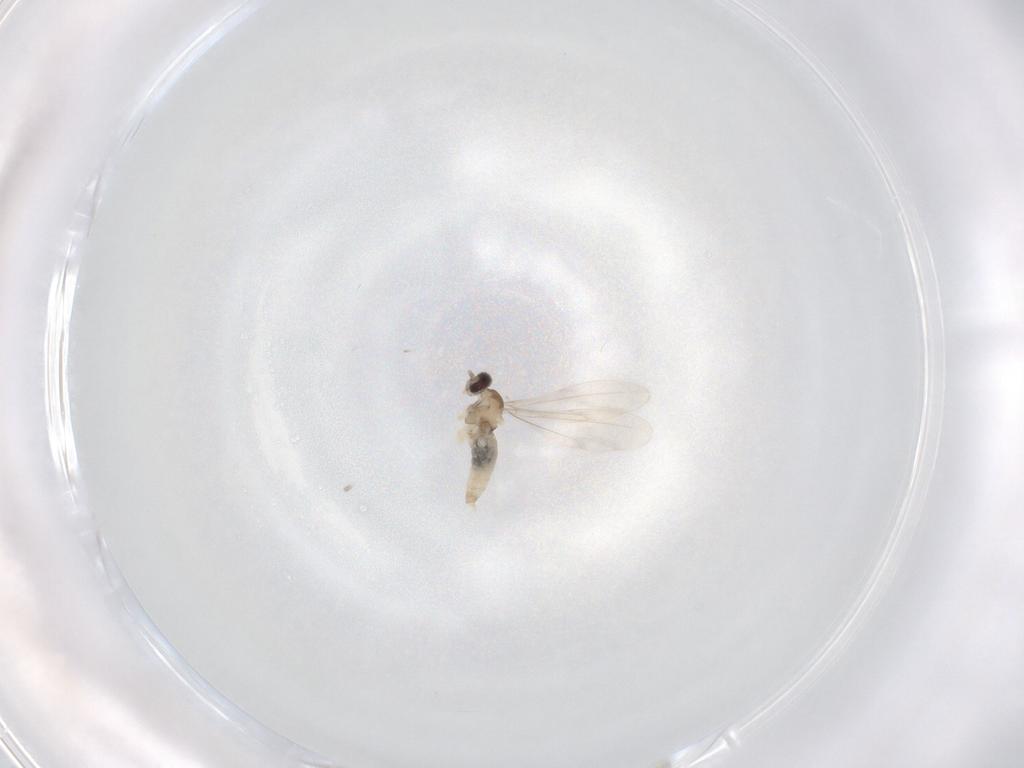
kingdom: Animalia
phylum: Arthropoda
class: Insecta
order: Diptera
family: Cecidomyiidae
